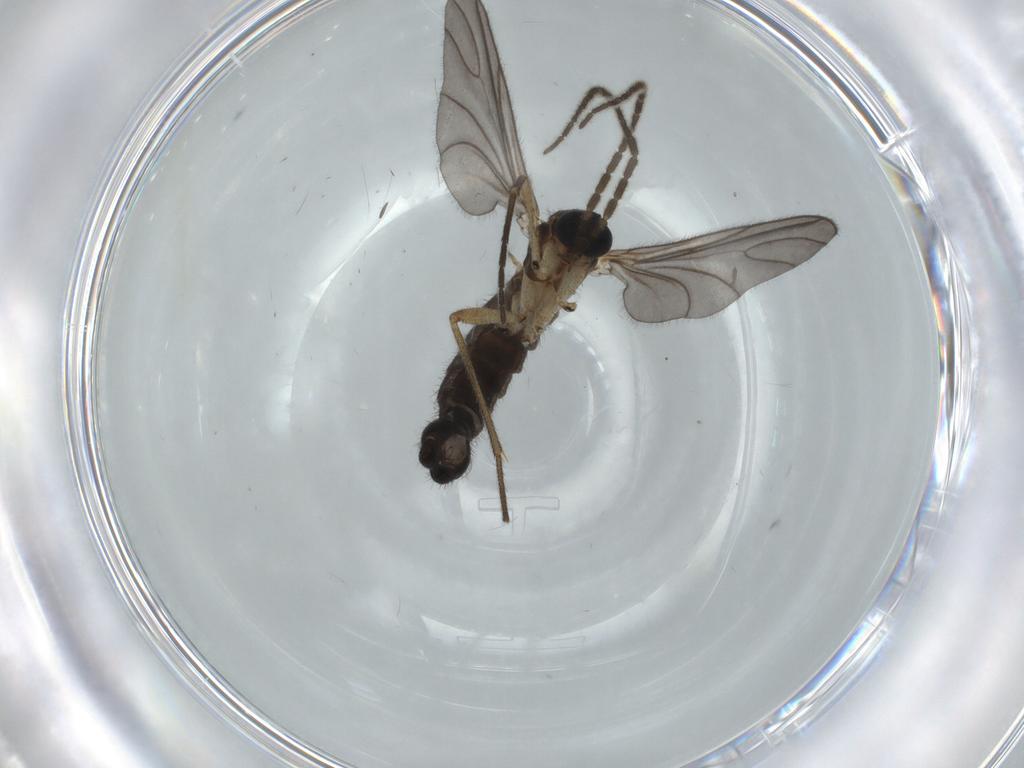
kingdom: Animalia
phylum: Arthropoda
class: Insecta
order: Diptera
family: Sciaridae
